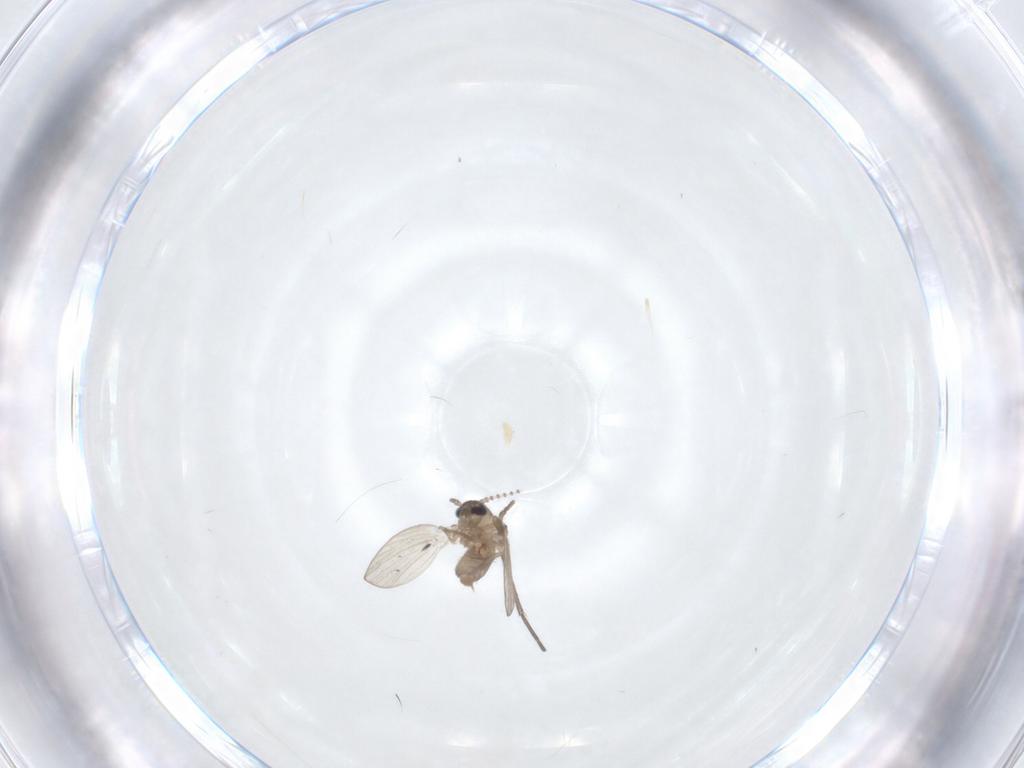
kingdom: Animalia
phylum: Arthropoda
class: Insecta
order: Diptera
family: Psychodidae
